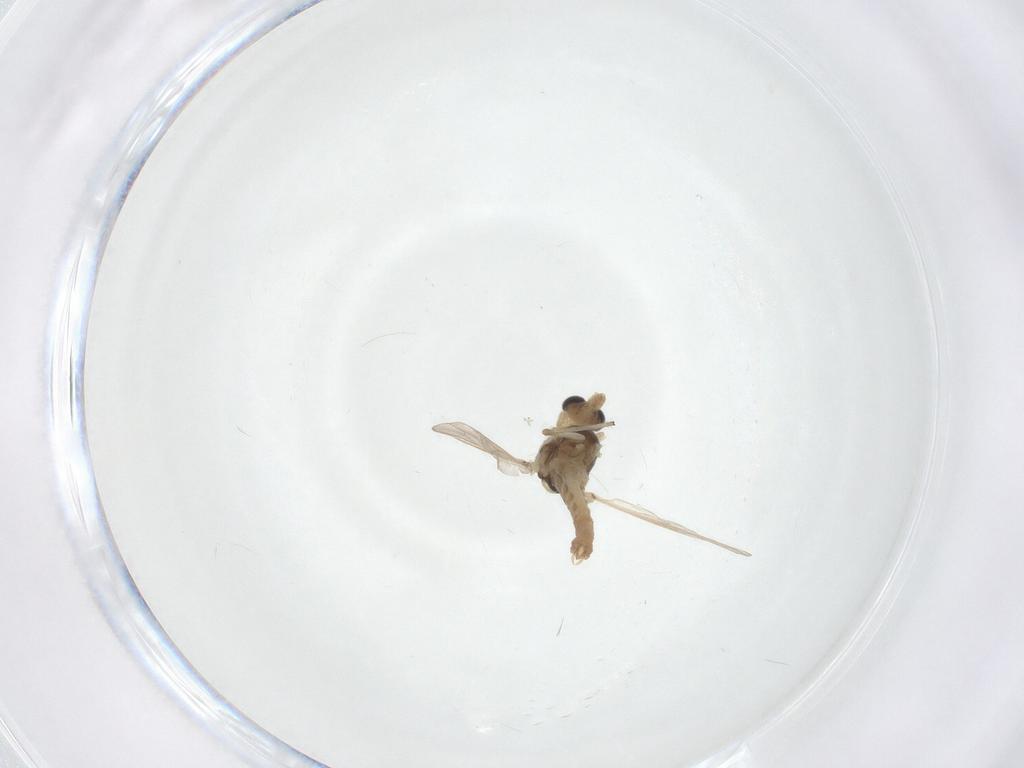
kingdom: Animalia
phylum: Arthropoda
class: Insecta
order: Diptera
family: Chironomidae
